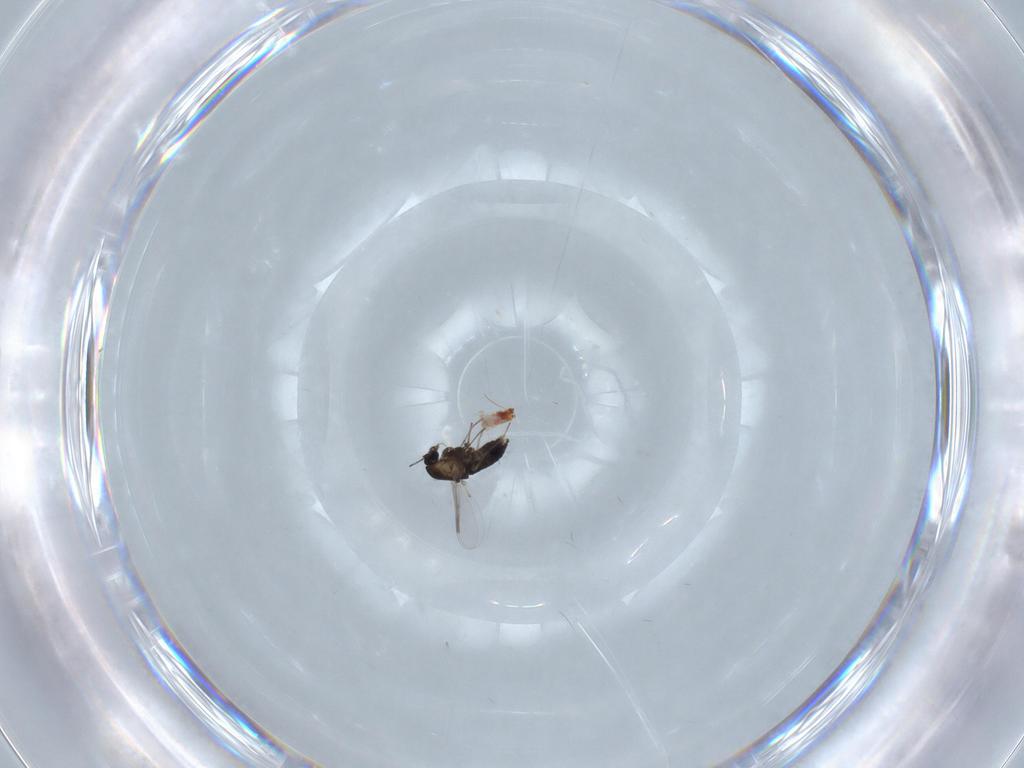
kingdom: Animalia
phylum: Arthropoda
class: Insecta
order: Diptera
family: Chironomidae
